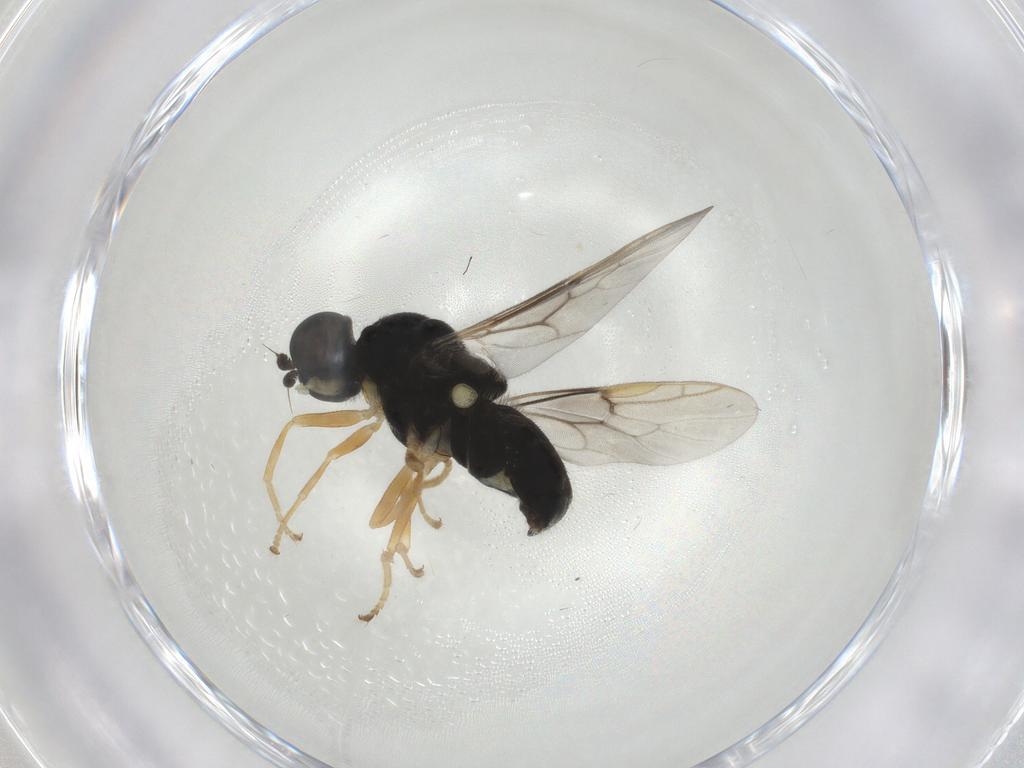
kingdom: Animalia
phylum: Arthropoda
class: Insecta
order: Diptera
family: Stratiomyidae
